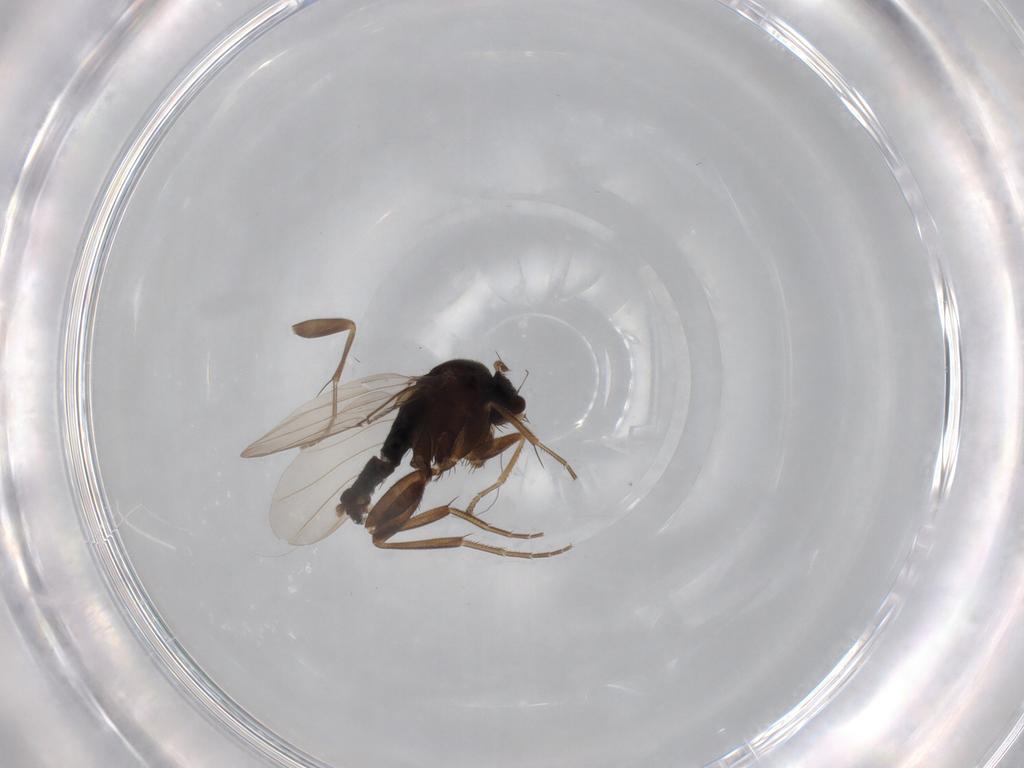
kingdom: Animalia
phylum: Arthropoda
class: Insecta
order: Diptera
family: Phoridae
